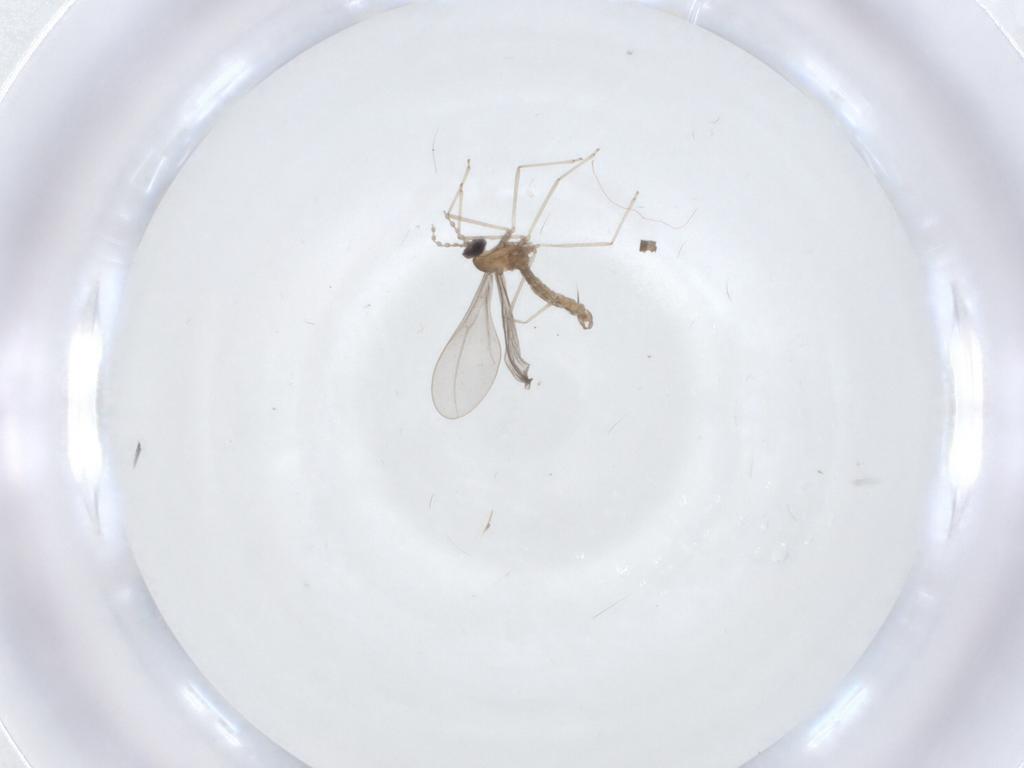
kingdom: Animalia
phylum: Arthropoda
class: Insecta
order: Diptera
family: Cecidomyiidae
